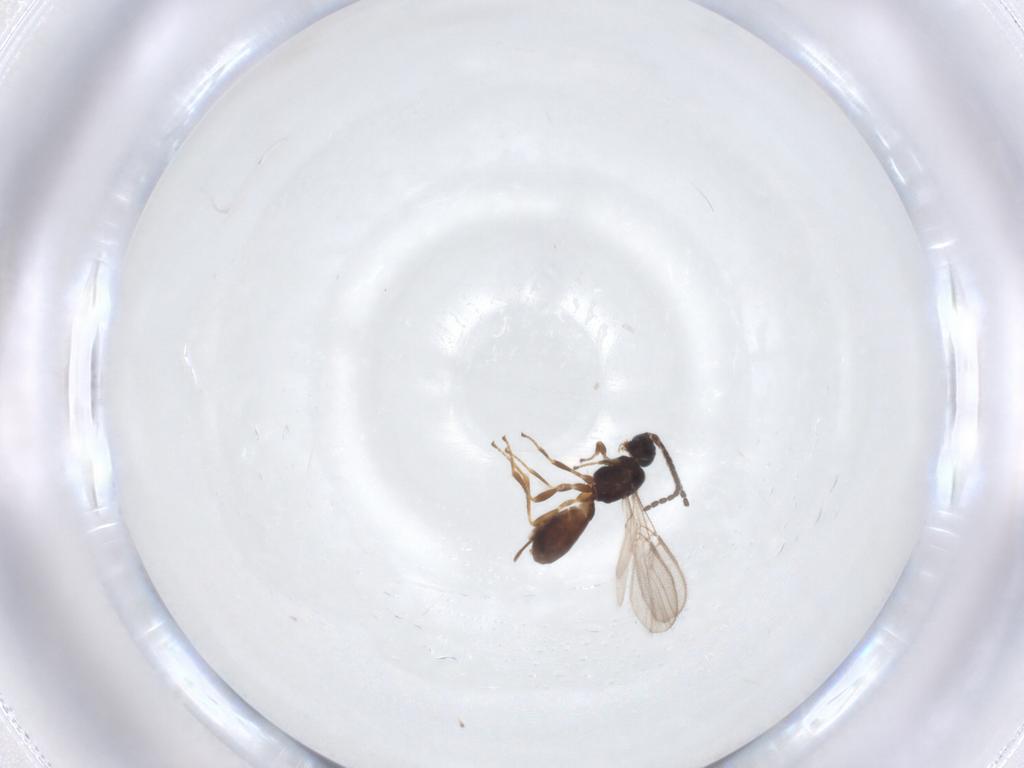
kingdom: Animalia
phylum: Arthropoda
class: Insecta
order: Hymenoptera
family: Braconidae
